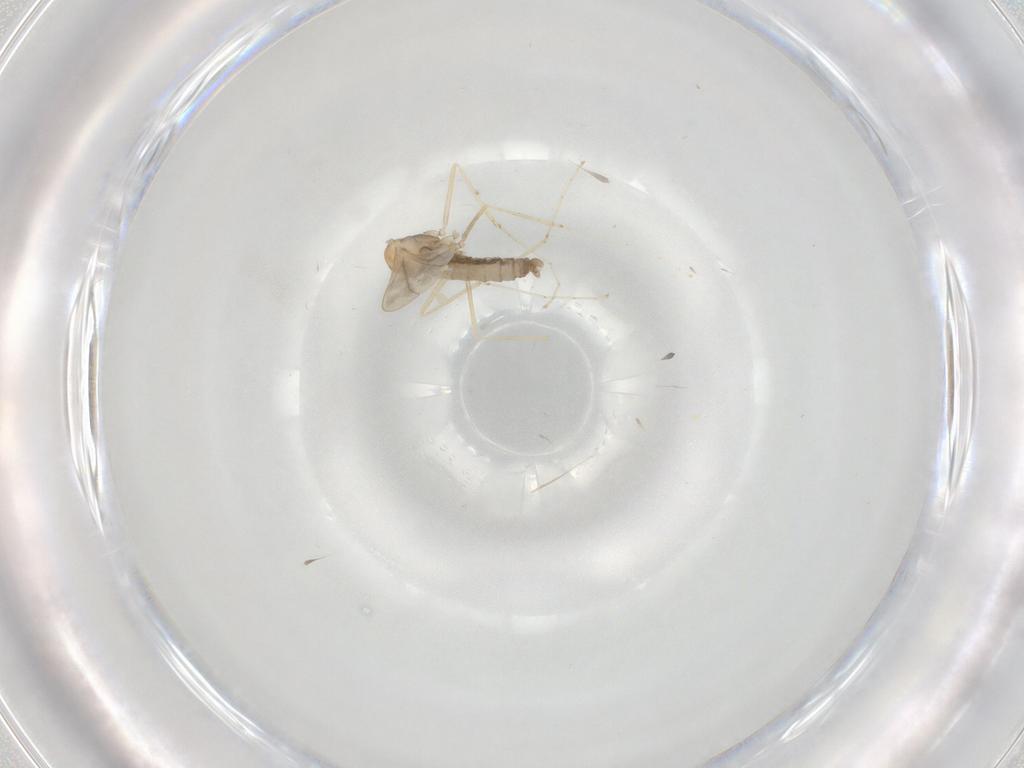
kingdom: Animalia
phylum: Arthropoda
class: Insecta
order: Diptera
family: Cecidomyiidae
